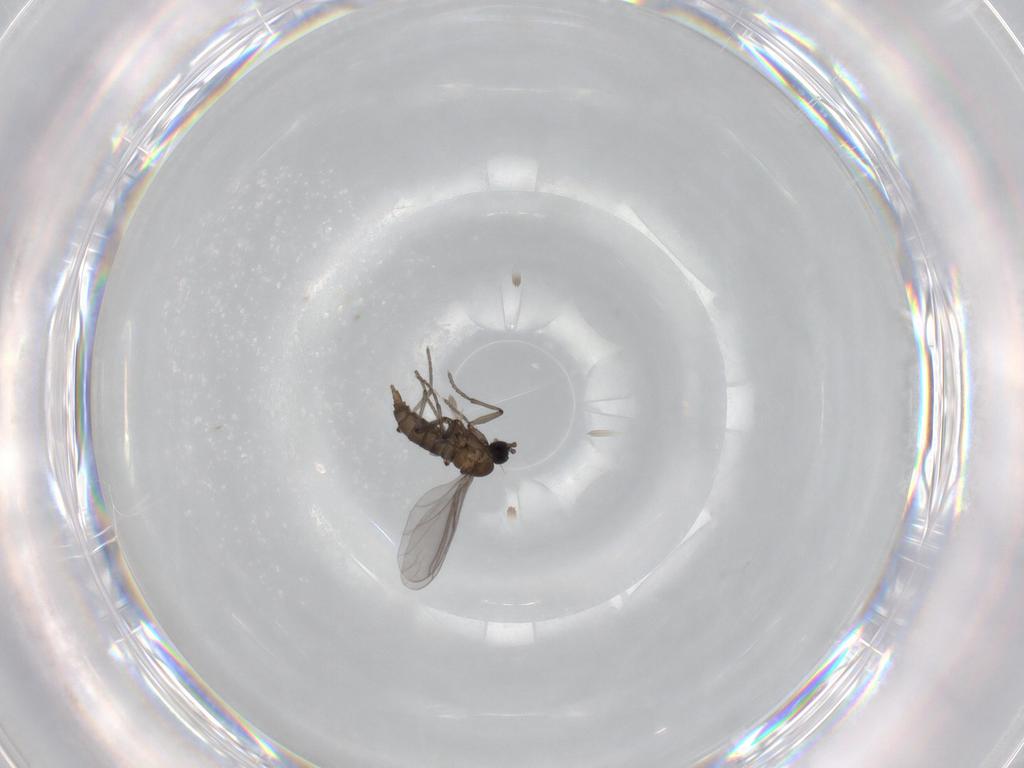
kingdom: Animalia
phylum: Arthropoda
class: Insecta
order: Diptera
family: Sciaridae
